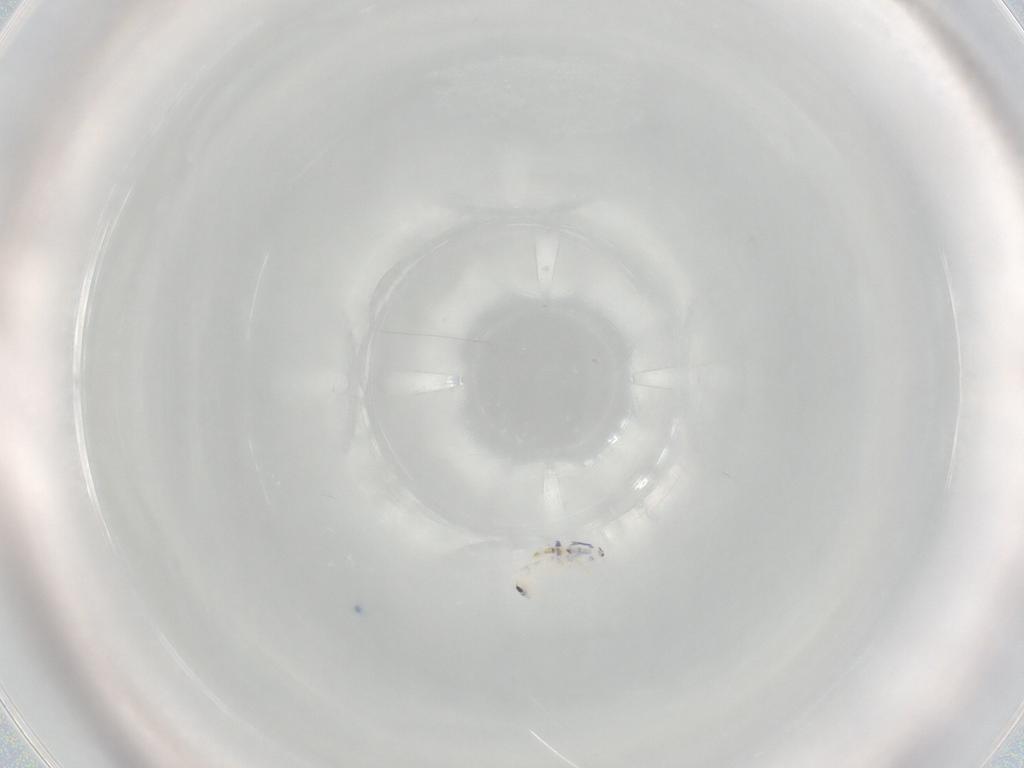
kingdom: Animalia
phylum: Arthropoda
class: Collembola
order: Entomobryomorpha
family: Entomobryidae
